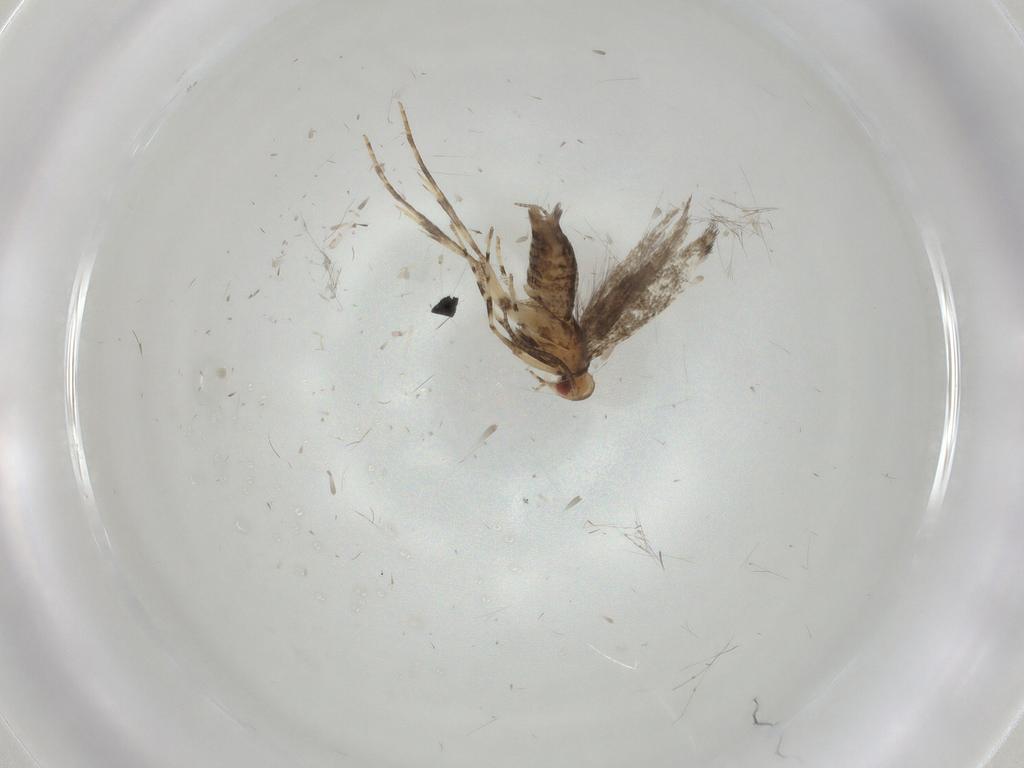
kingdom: Animalia
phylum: Arthropoda
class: Insecta
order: Lepidoptera
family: Gracillariidae
